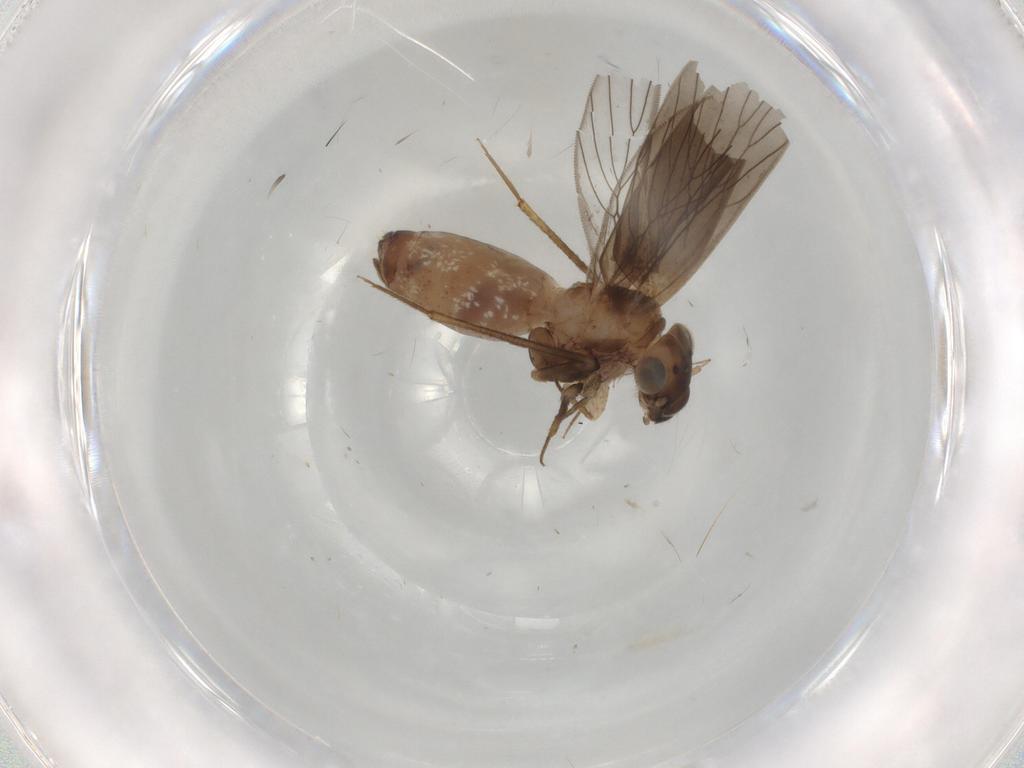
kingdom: Animalia
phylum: Arthropoda
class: Insecta
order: Psocodea
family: Lepidopsocidae
